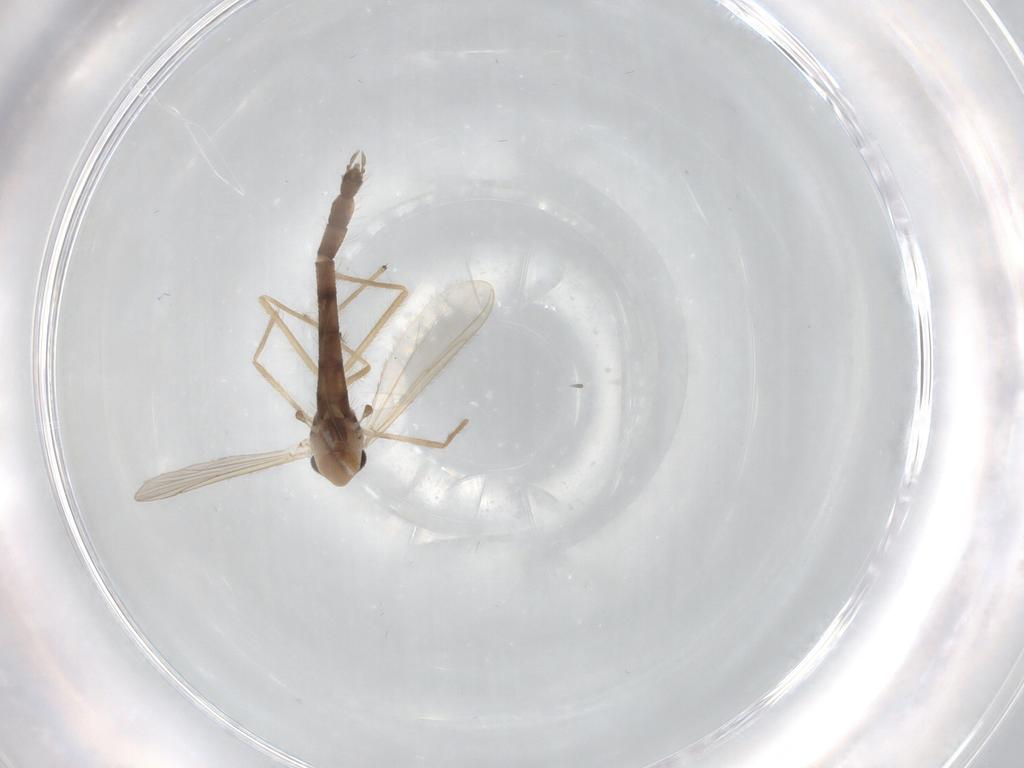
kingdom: Animalia
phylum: Arthropoda
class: Insecta
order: Diptera
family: Chironomidae
